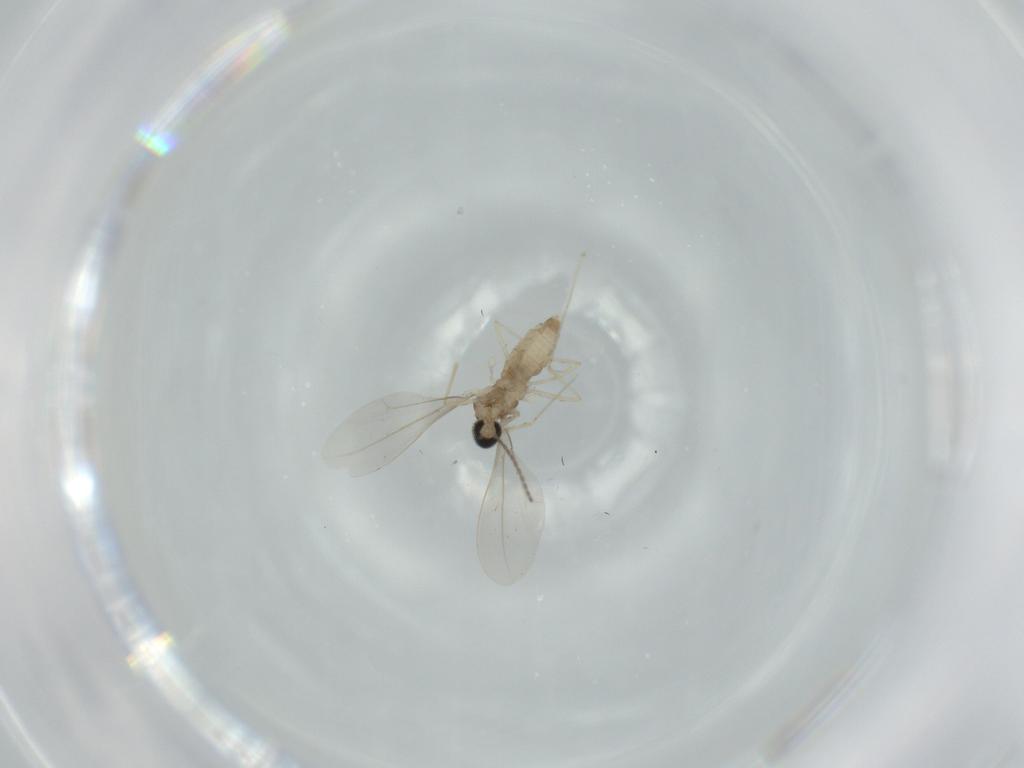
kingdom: Animalia
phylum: Arthropoda
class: Insecta
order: Diptera
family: Cecidomyiidae
